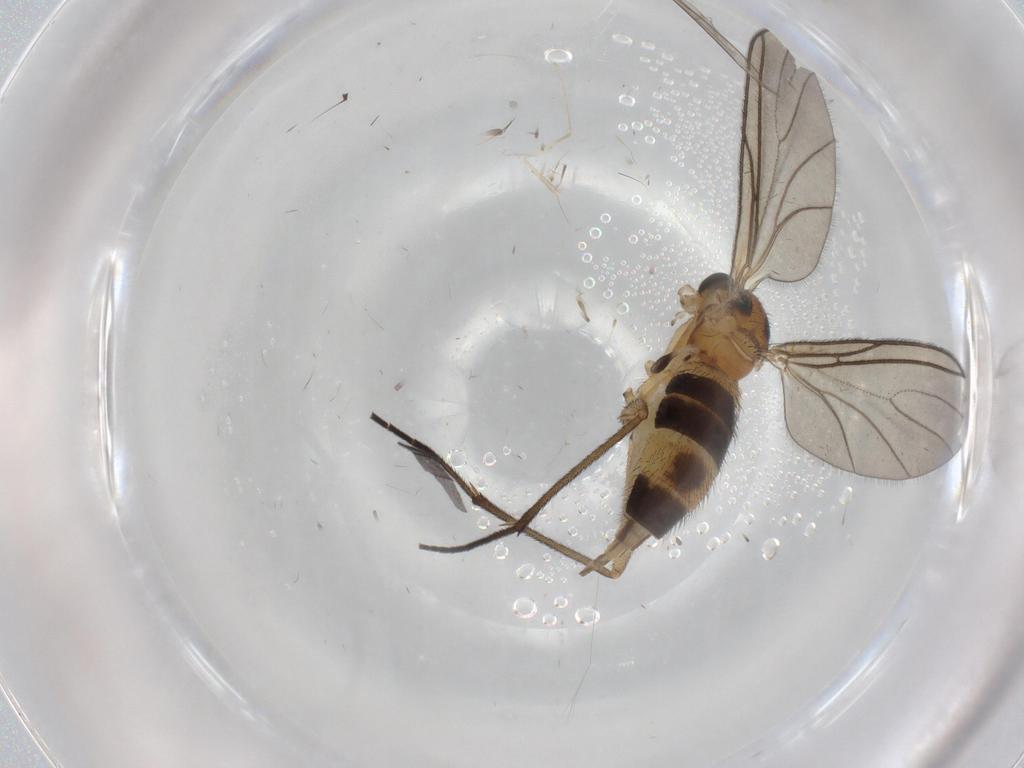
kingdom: Animalia
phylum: Arthropoda
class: Insecta
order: Diptera
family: Sciaridae
